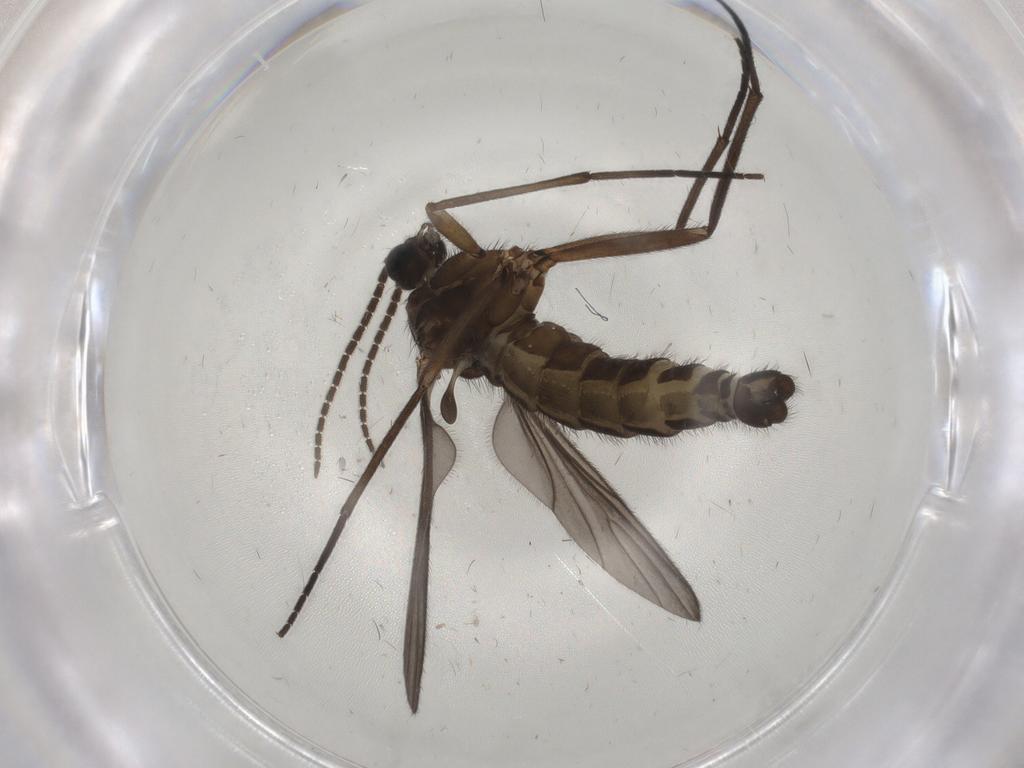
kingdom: Animalia
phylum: Arthropoda
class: Insecta
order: Diptera
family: Sciaridae
